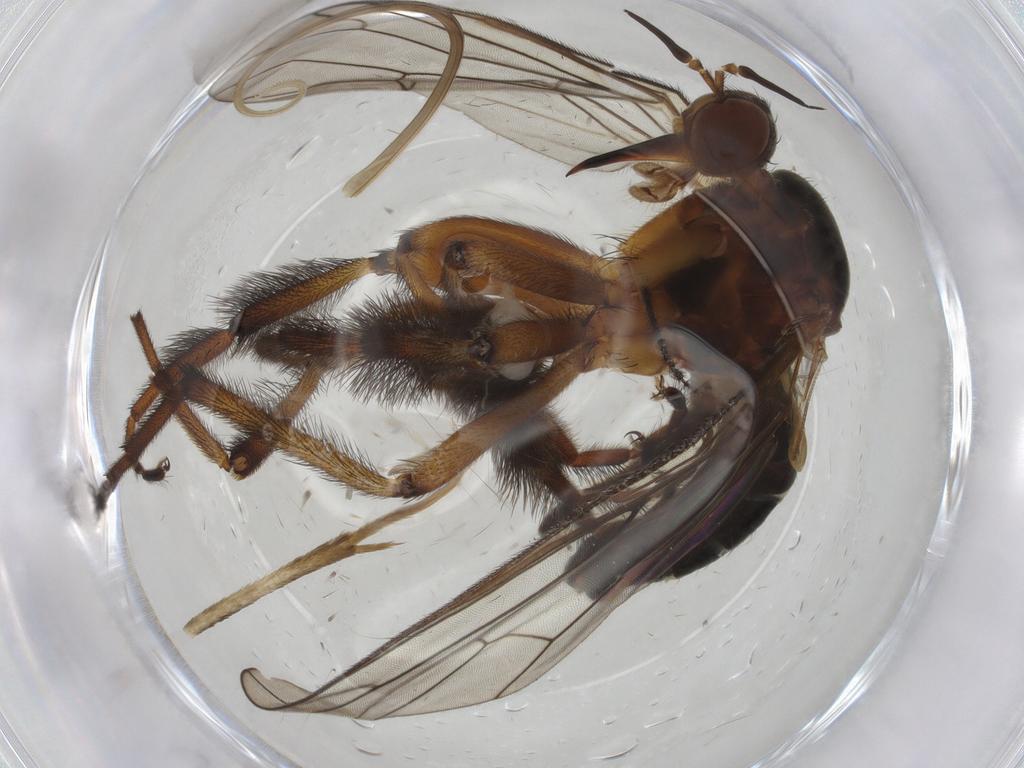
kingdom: Animalia
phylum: Arthropoda
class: Insecta
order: Diptera
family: Empididae
